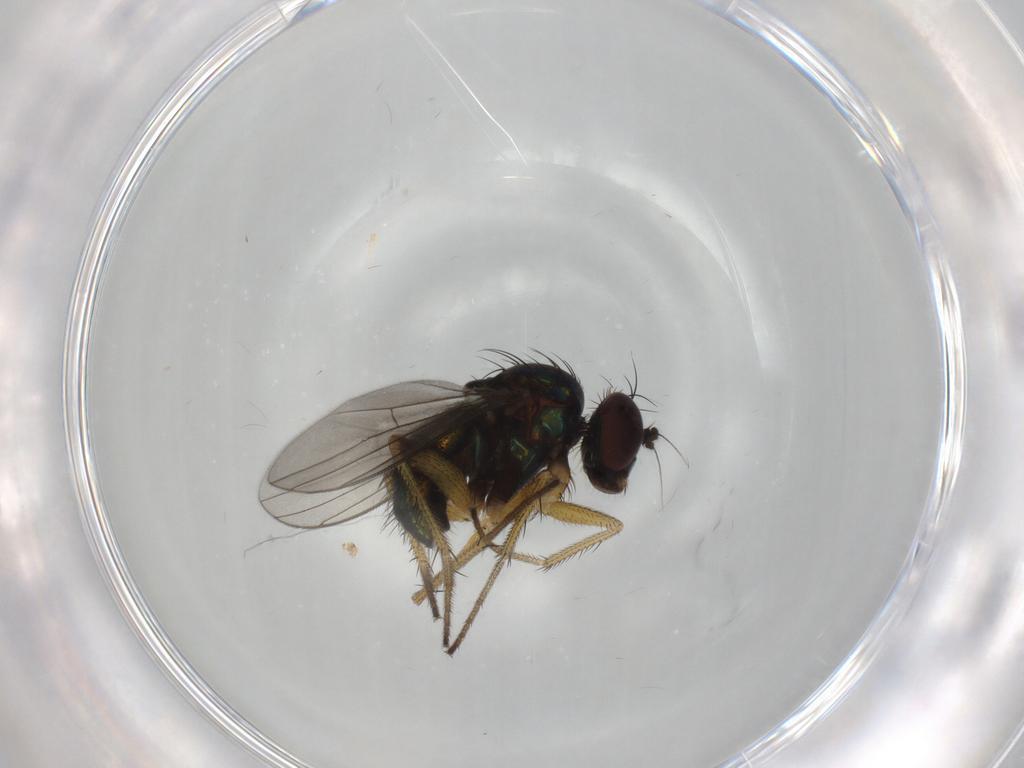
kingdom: Animalia
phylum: Arthropoda
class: Insecta
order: Diptera
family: Dolichopodidae
